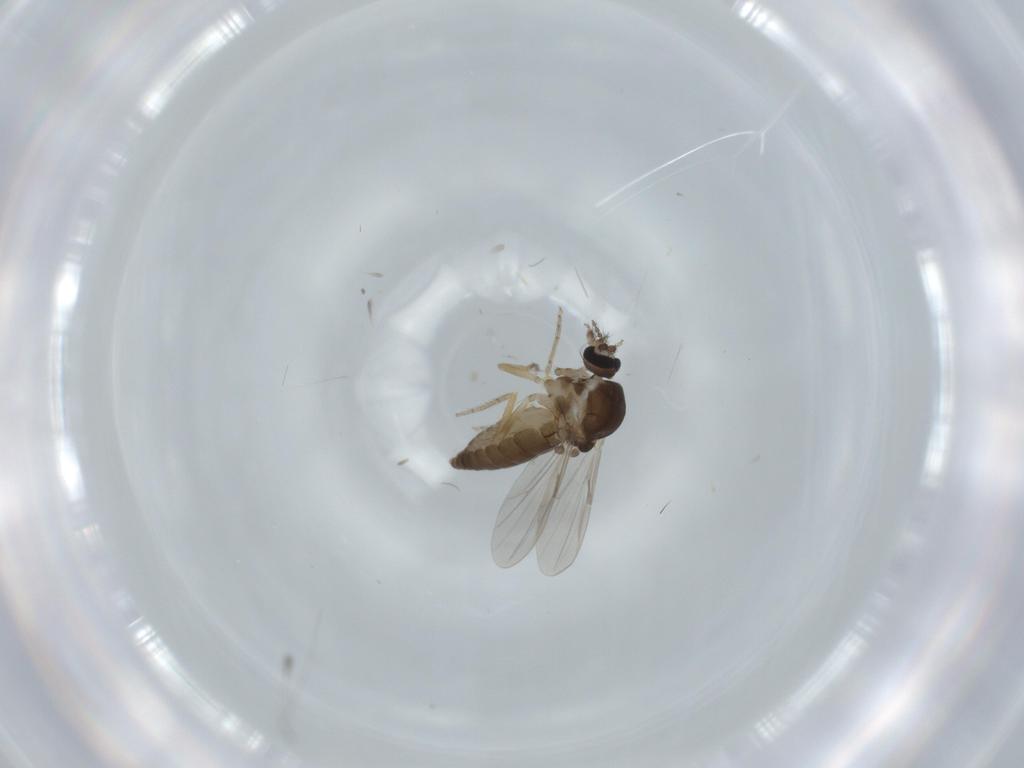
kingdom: Animalia
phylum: Arthropoda
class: Insecta
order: Diptera
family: Ceratopogonidae
